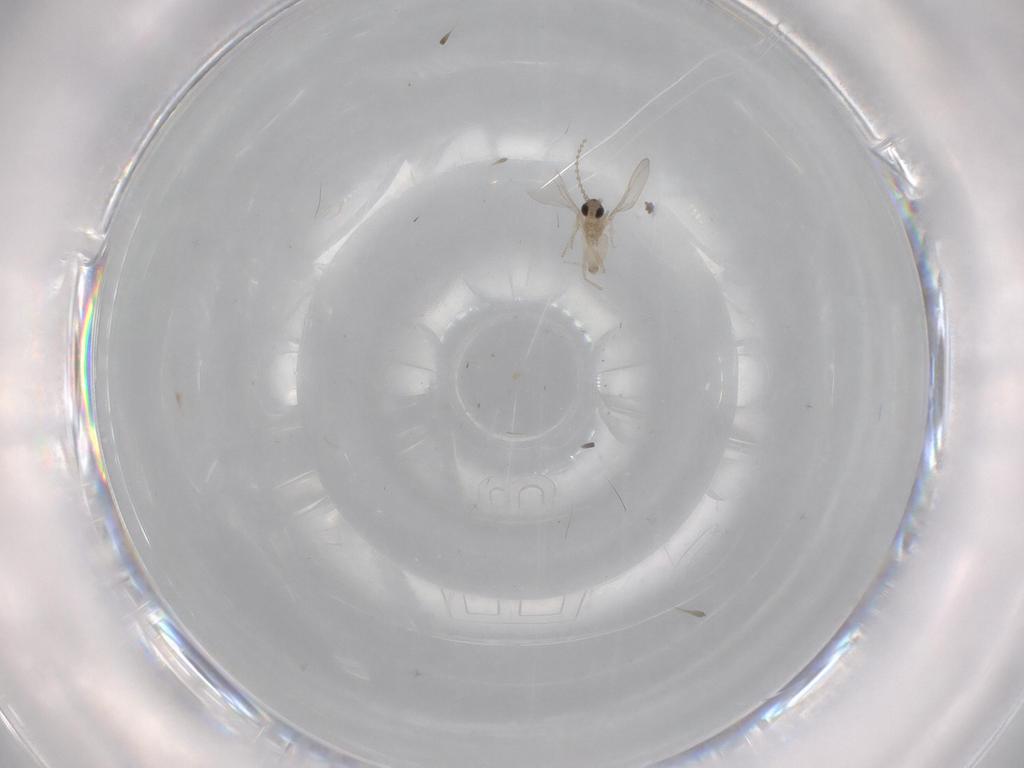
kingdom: Animalia
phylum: Arthropoda
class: Insecta
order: Diptera
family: Cecidomyiidae
